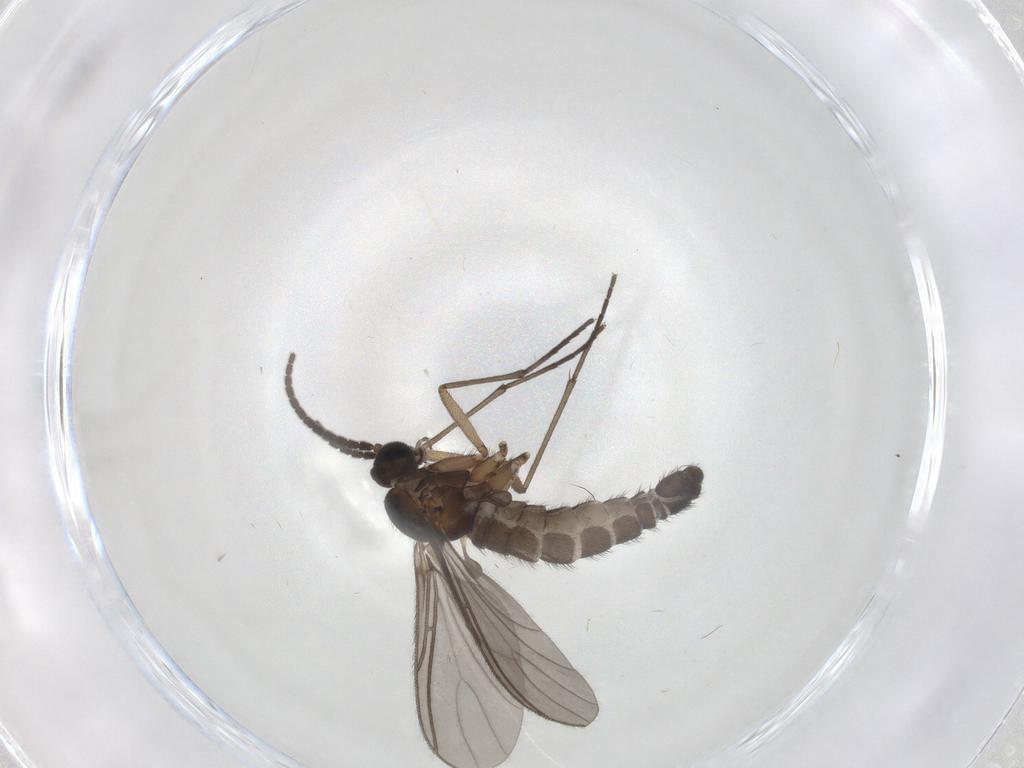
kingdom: Animalia
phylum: Arthropoda
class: Insecta
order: Diptera
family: Sciaridae
